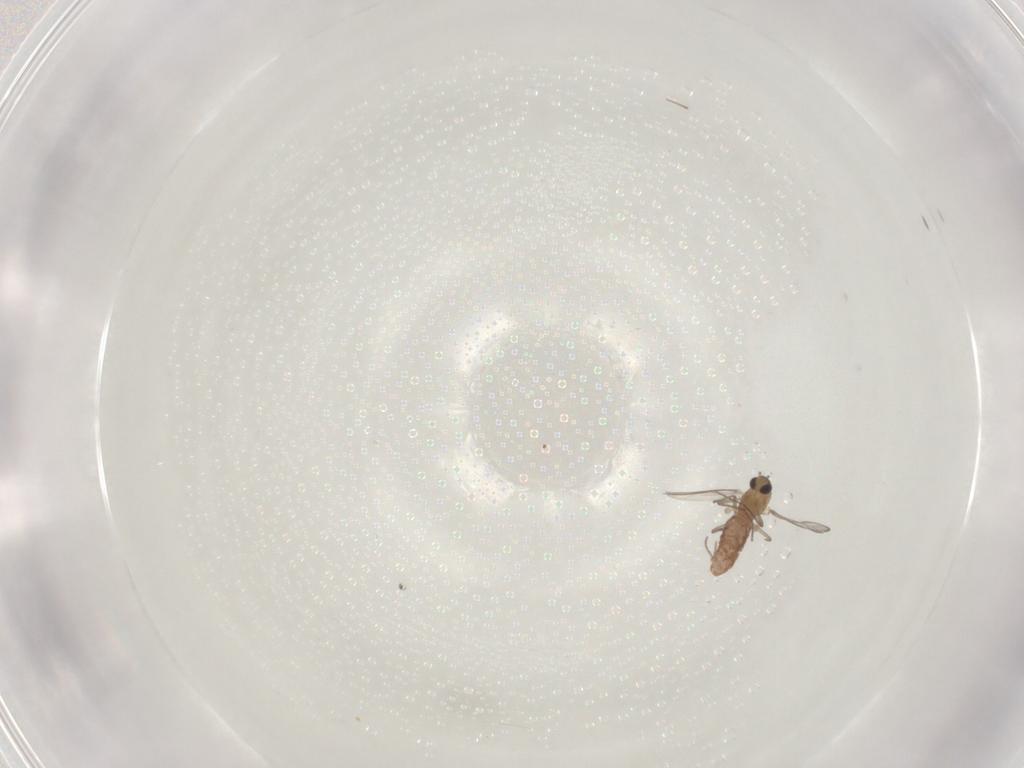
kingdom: Animalia
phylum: Arthropoda
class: Insecta
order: Diptera
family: Chironomidae
